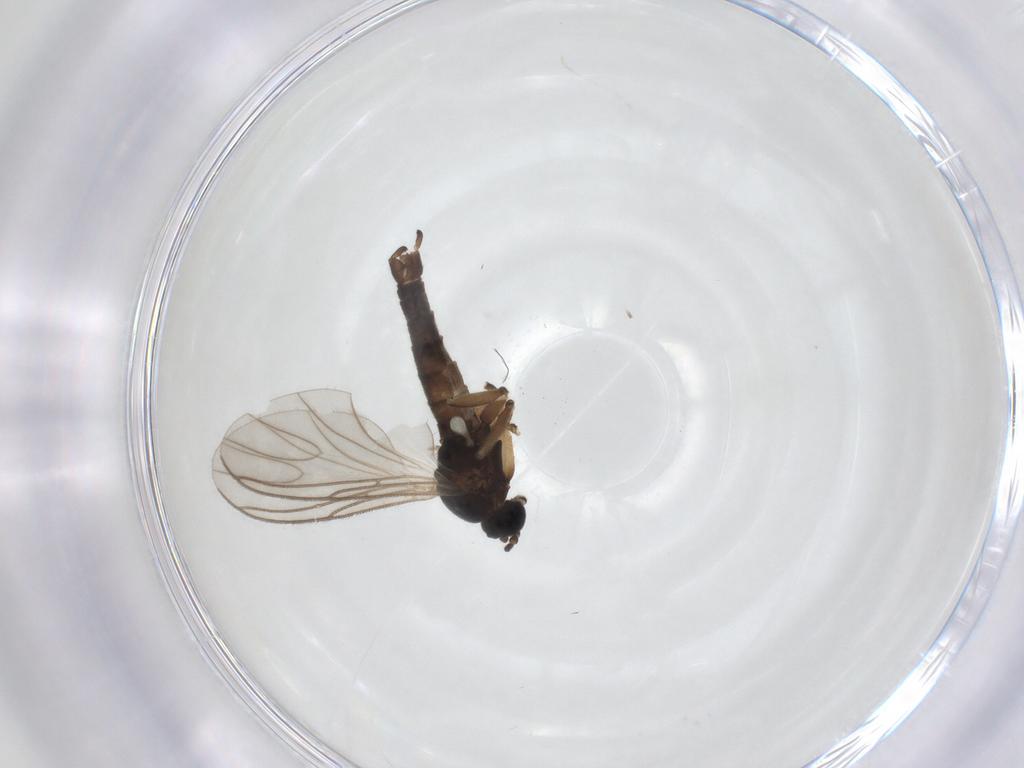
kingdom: Animalia
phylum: Arthropoda
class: Insecta
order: Diptera
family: Sciaridae
